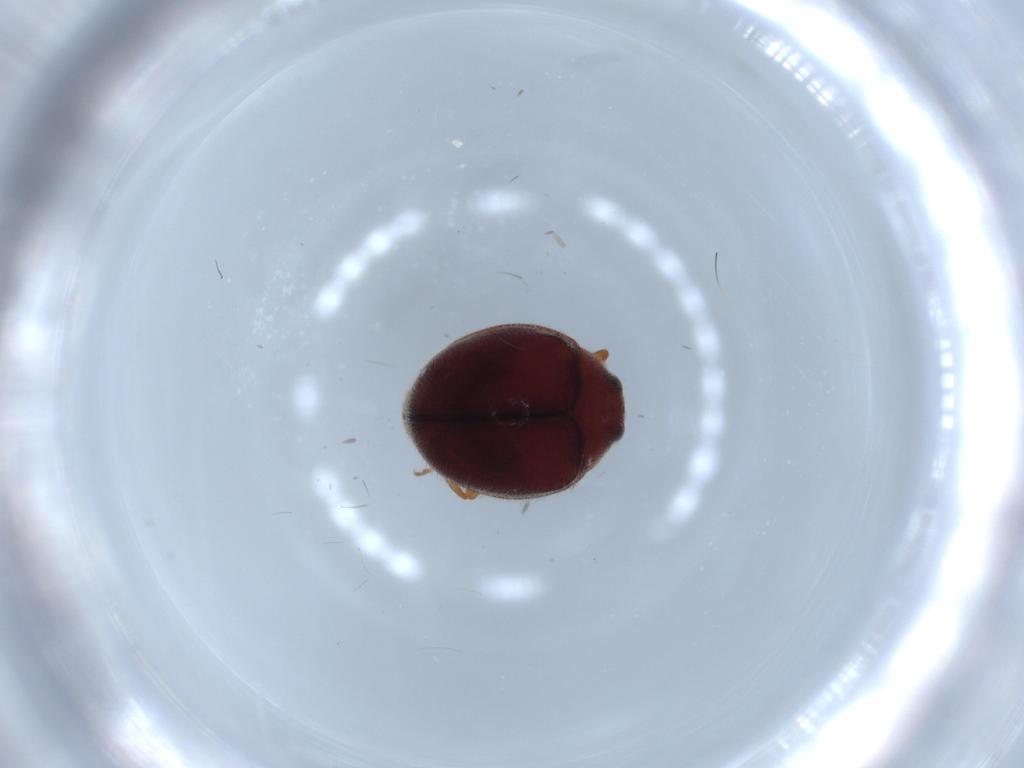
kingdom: Animalia
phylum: Arthropoda
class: Insecta
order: Coleoptera
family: Coccinellidae
